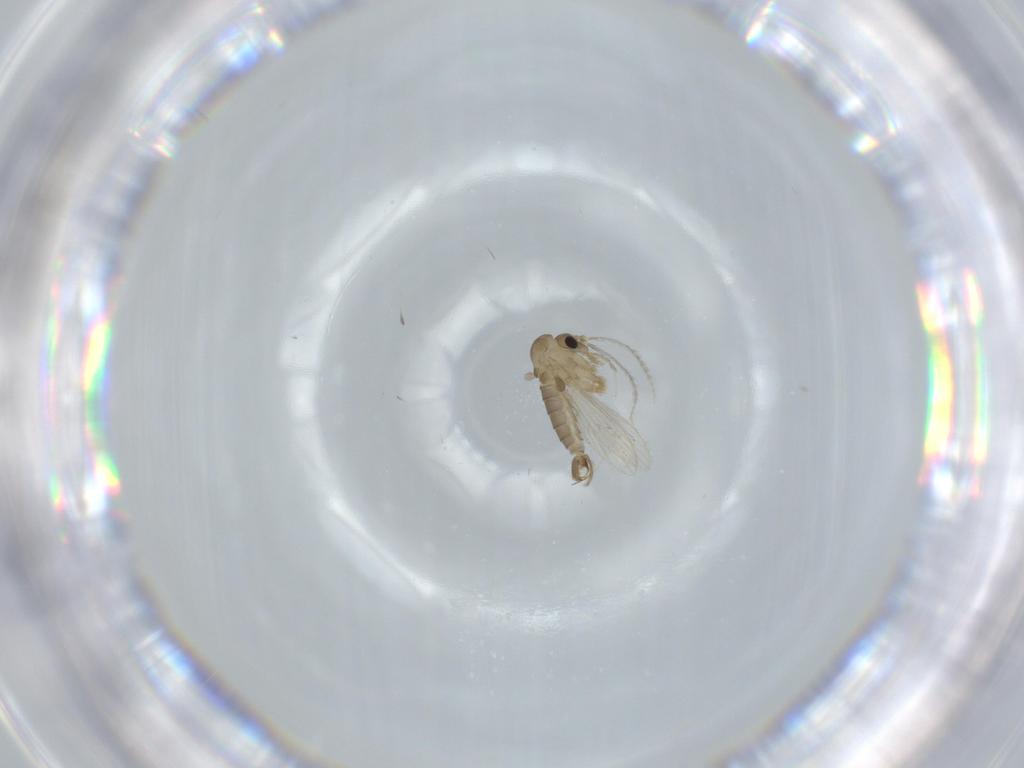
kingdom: Animalia
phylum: Arthropoda
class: Insecta
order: Diptera
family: Psychodidae
